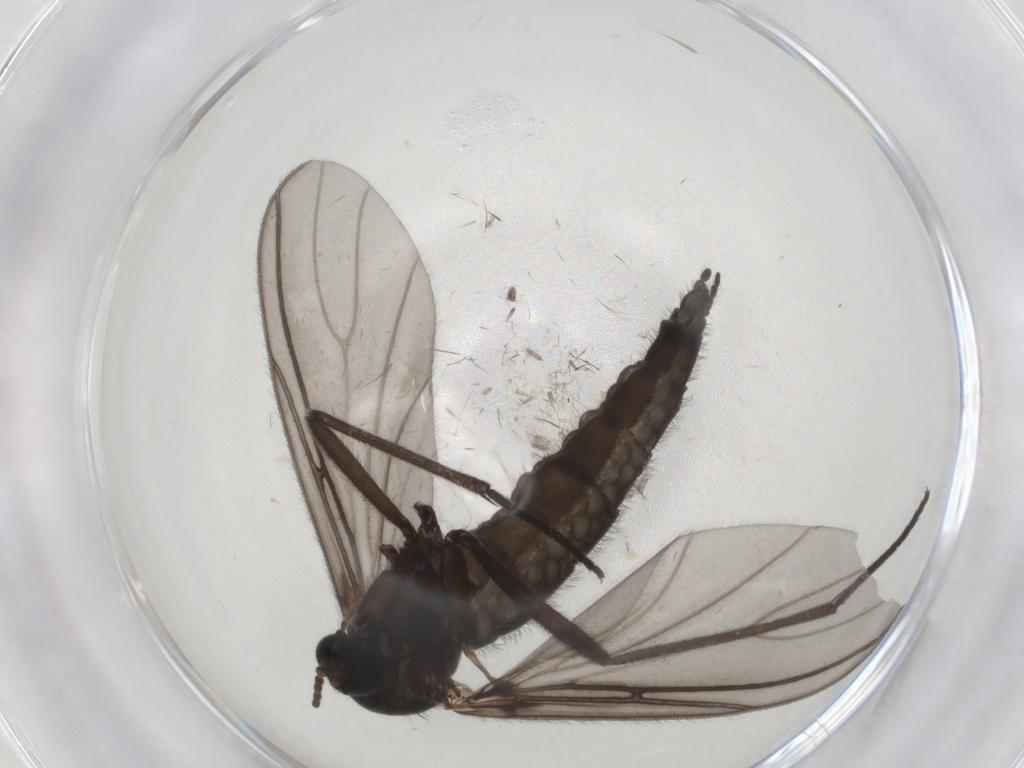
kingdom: Animalia
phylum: Arthropoda
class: Insecta
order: Diptera
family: Sciaridae
